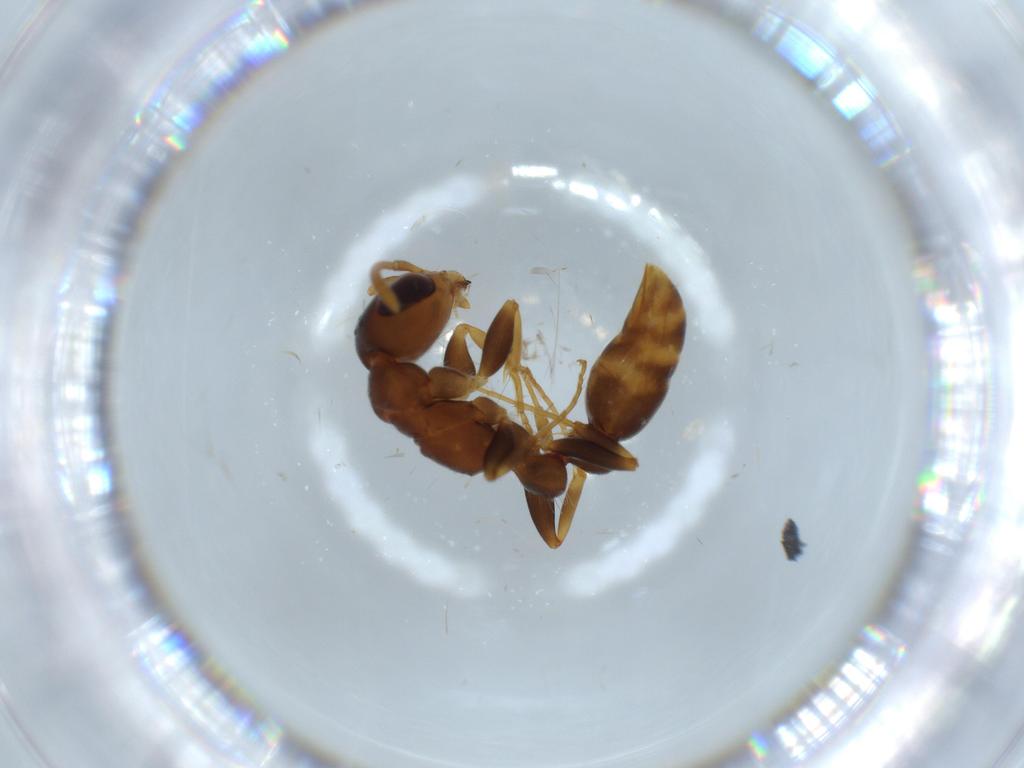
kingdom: Animalia
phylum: Arthropoda
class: Insecta
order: Hymenoptera
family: Formicidae
